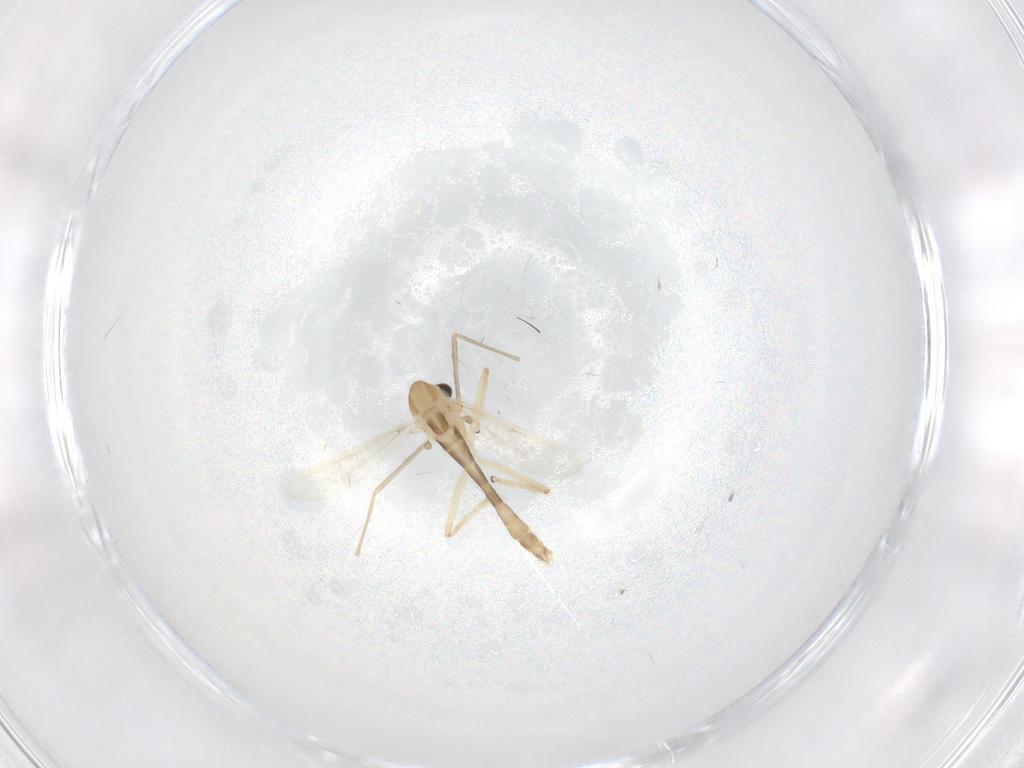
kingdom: Animalia
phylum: Arthropoda
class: Insecta
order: Diptera
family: Chironomidae
